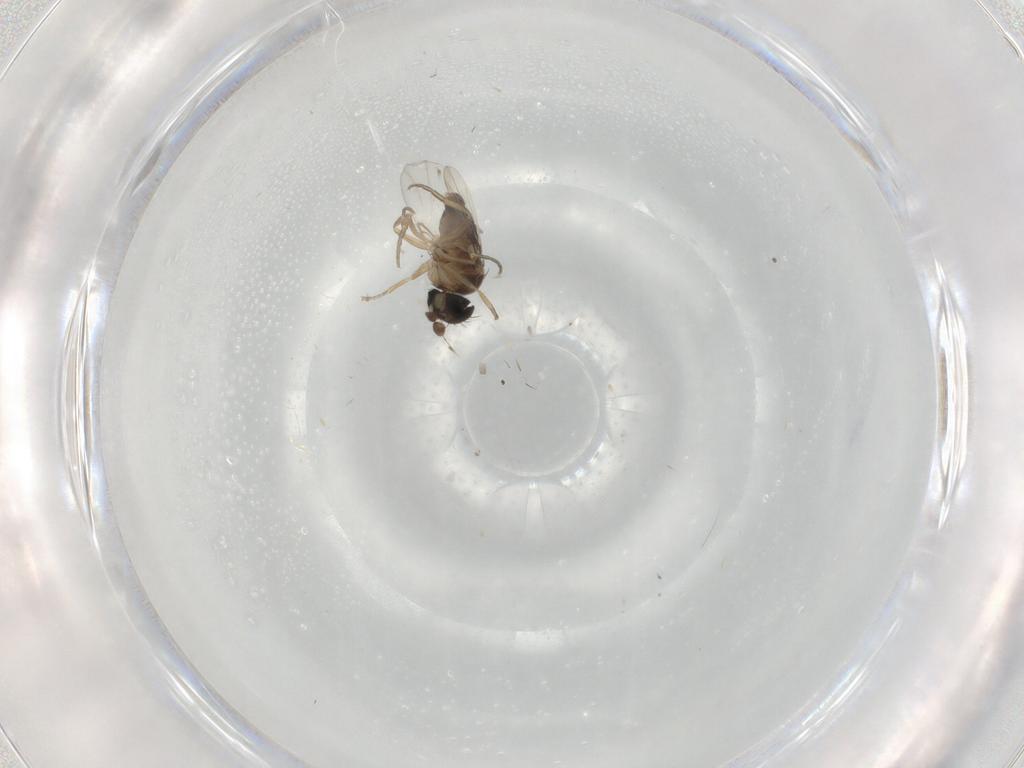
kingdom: Animalia
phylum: Arthropoda
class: Insecta
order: Diptera
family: Phoridae
